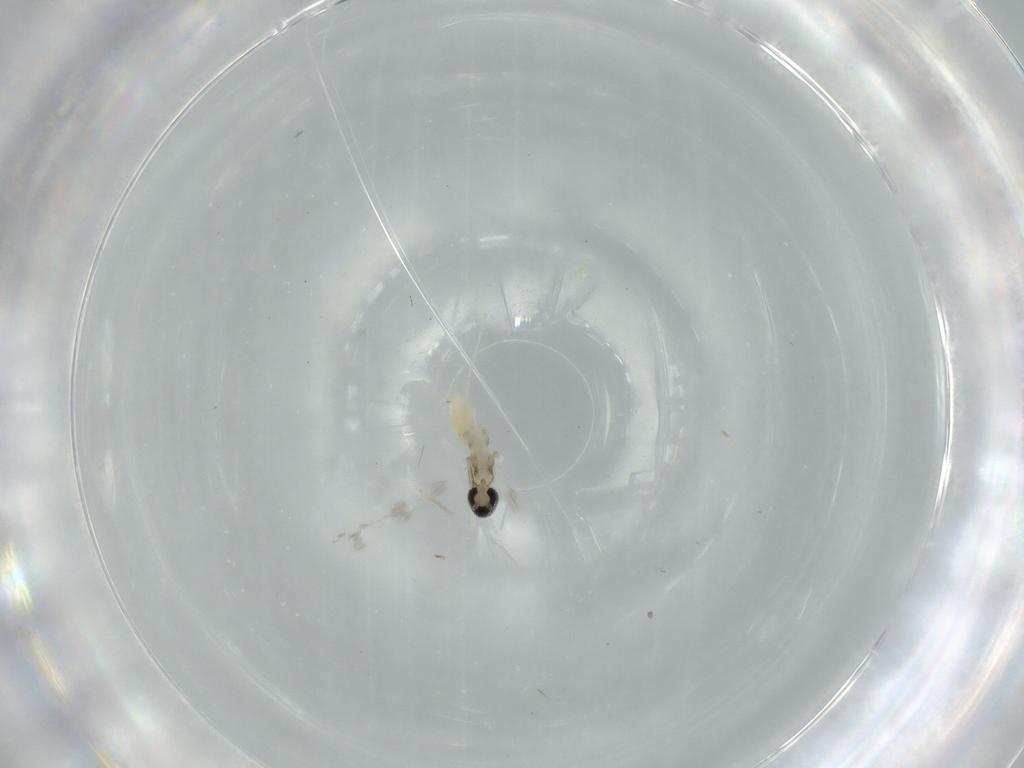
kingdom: Animalia
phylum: Arthropoda
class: Insecta
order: Diptera
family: Cecidomyiidae
